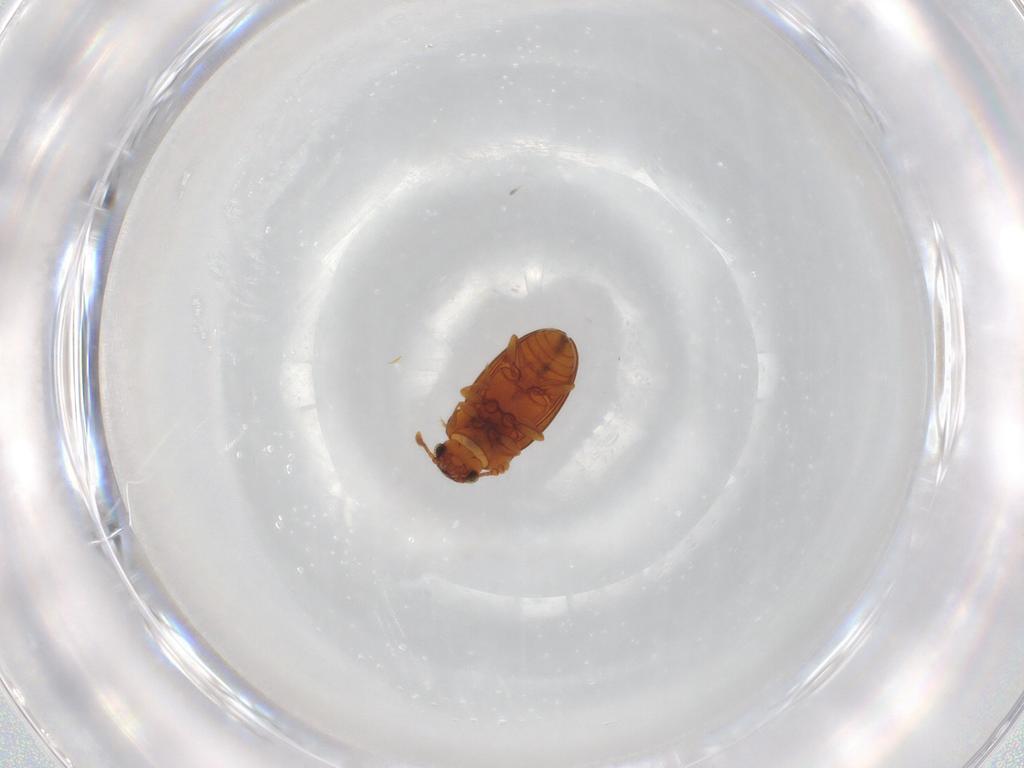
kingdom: Animalia
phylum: Arthropoda
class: Insecta
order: Coleoptera
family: Erotylidae
